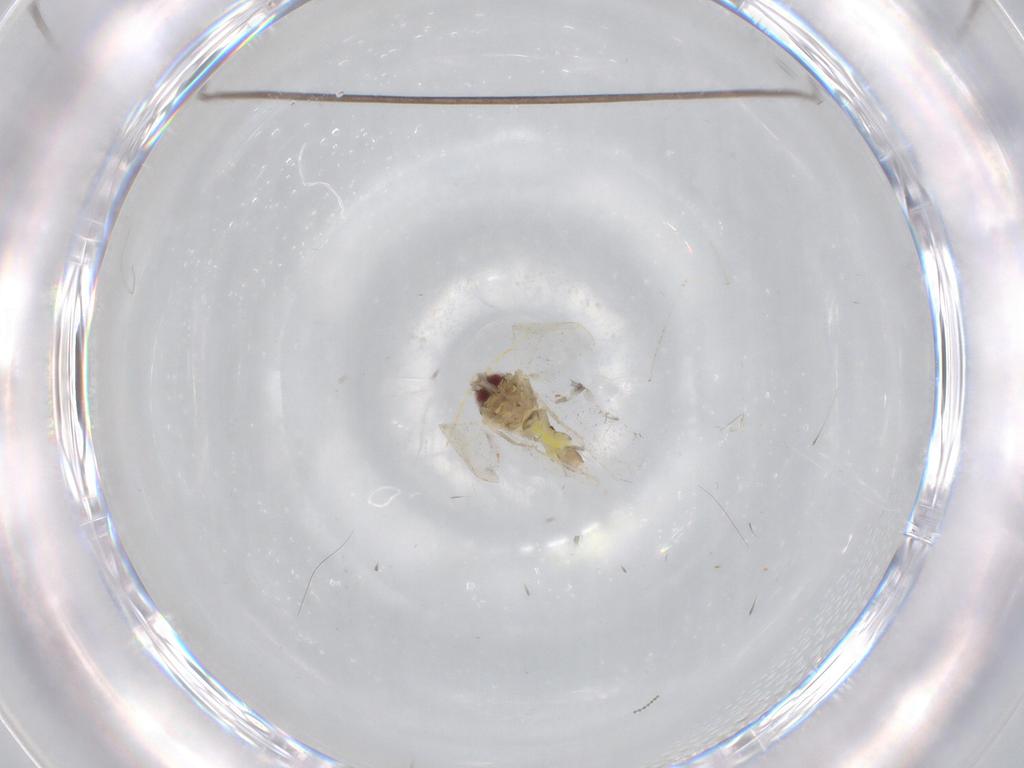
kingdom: Animalia
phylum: Arthropoda
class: Insecta
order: Hemiptera
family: Aleyrodidae
